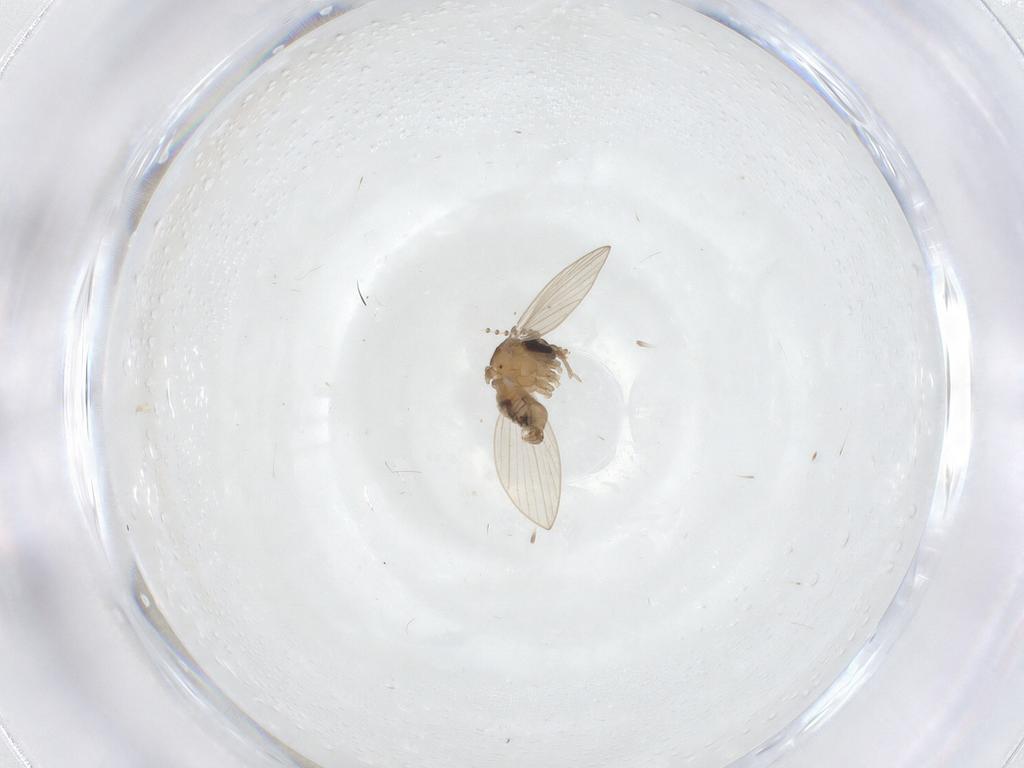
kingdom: Animalia
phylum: Arthropoda
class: Insecta
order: Diptera
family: Psychodidae
